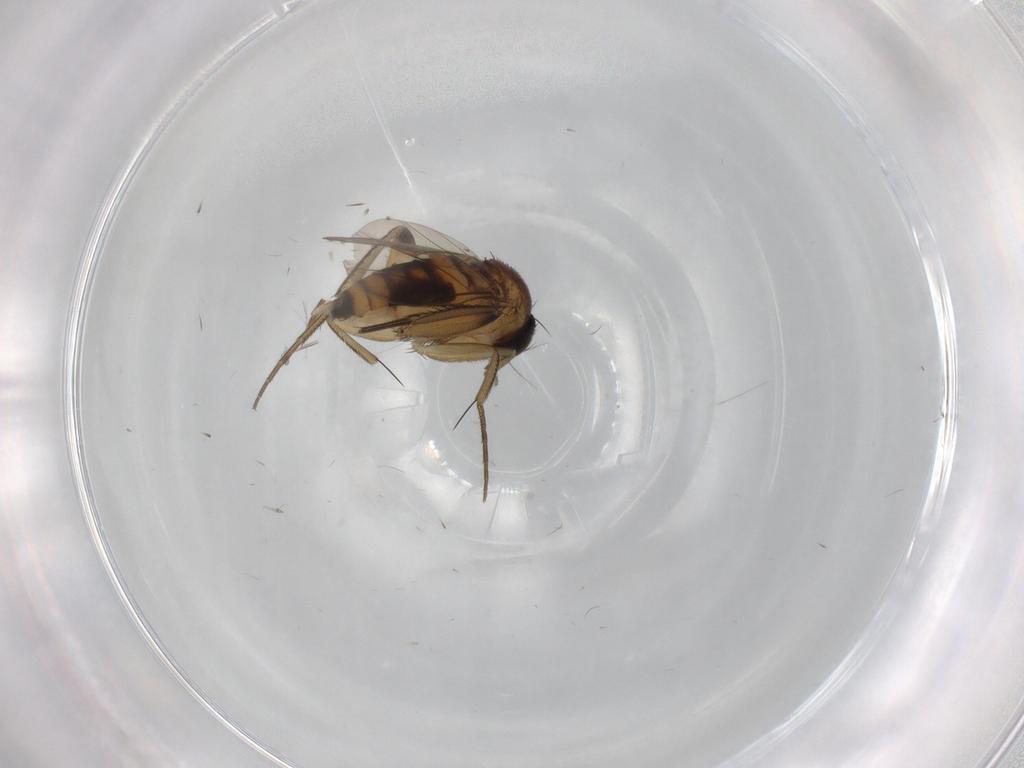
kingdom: Animalia
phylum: Arthropoda
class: Insecta
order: Diptera
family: Phoridae
